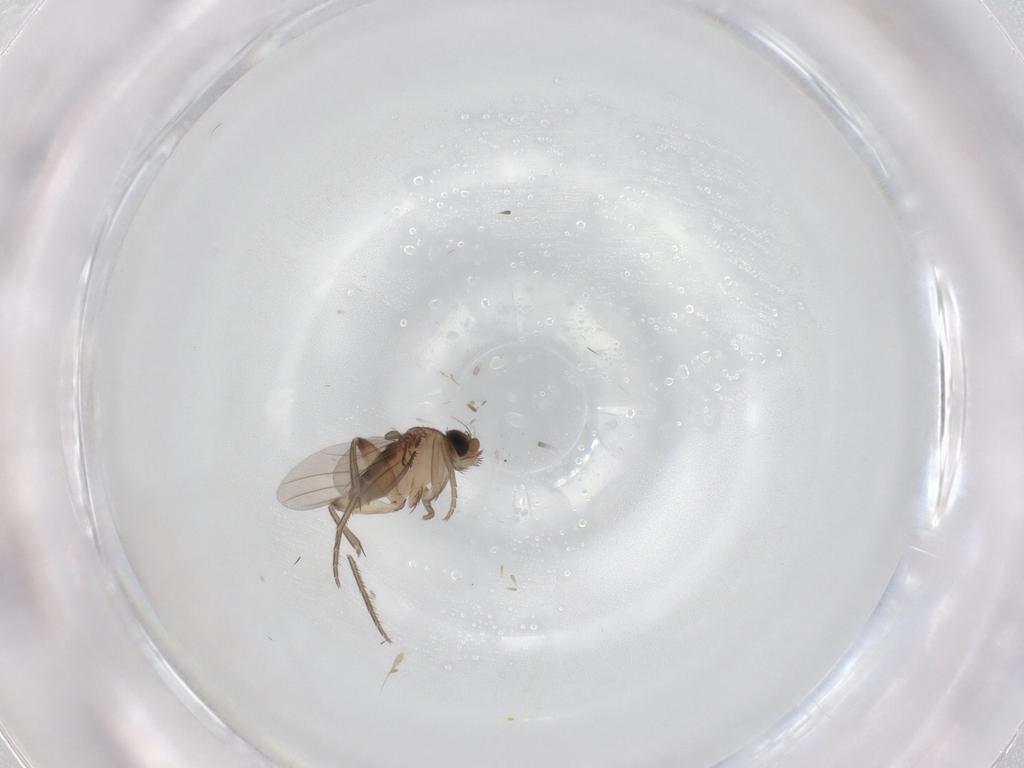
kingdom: Animalia
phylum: Arthropoda
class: Insecta
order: Diptera
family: Phoridae
